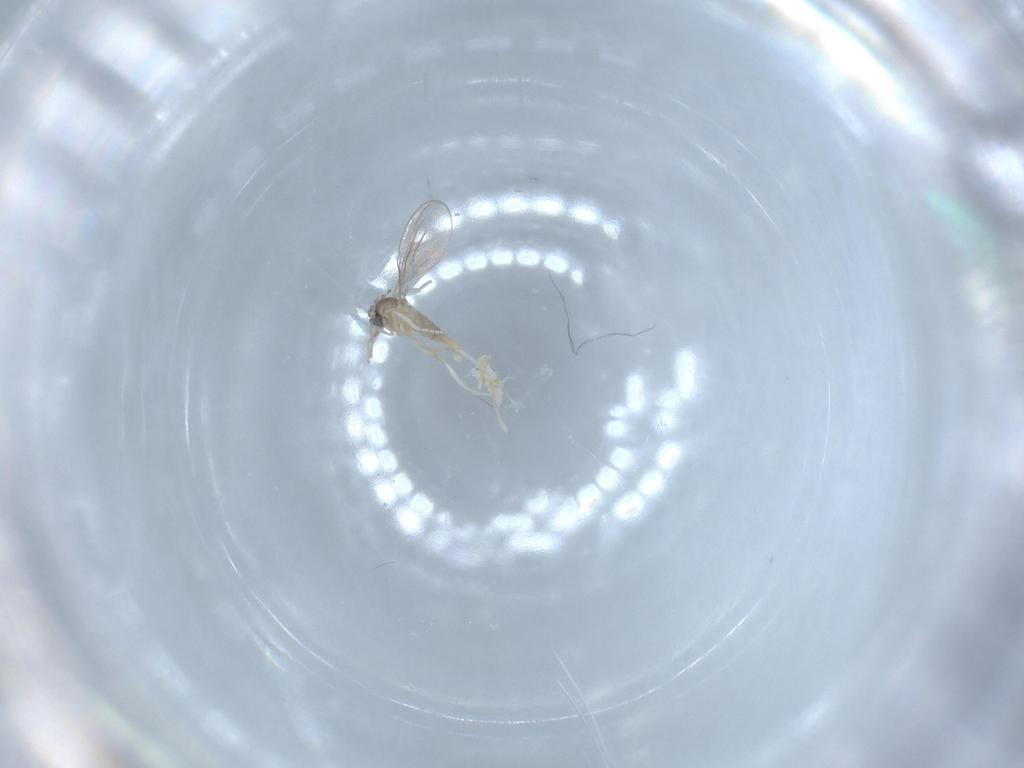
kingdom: Animalia
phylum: Arthropoda
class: Insecta
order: Diptera
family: Cecidomyiidae
